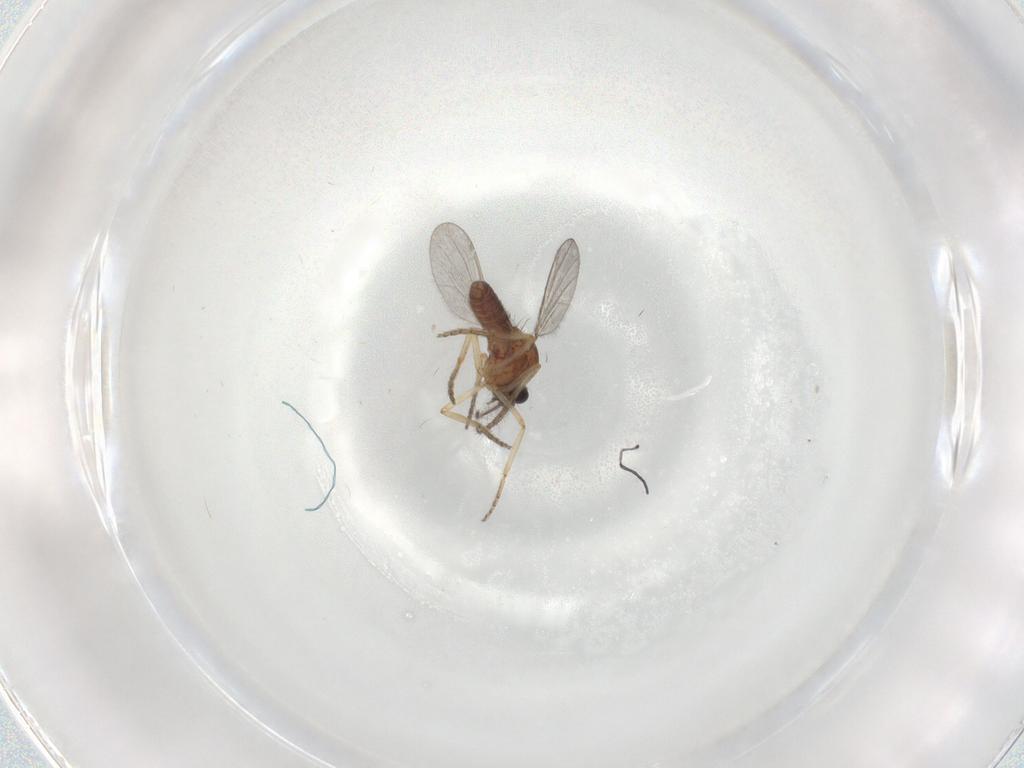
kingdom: Animalia
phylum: Arthropoda
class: Insecta
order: Diptera
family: Ceratopogonidae
